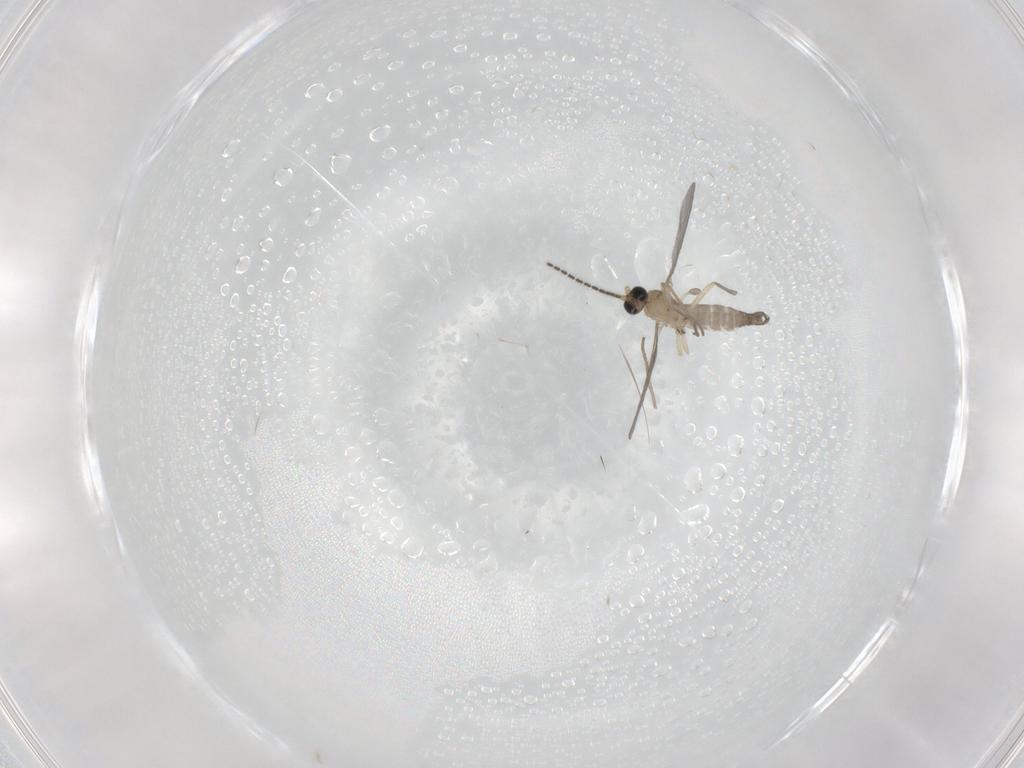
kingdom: Animalia
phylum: Arthropoda
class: Insecta
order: Diptera
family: Sciaridae
